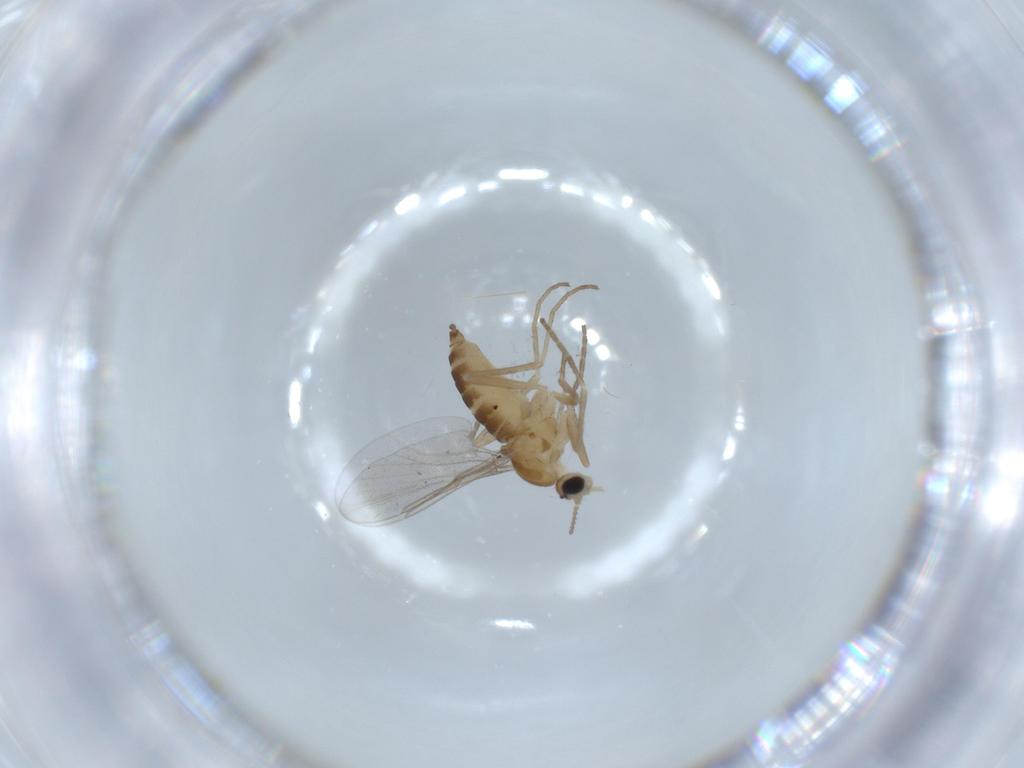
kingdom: Animalia
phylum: Arthropoda
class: Insecta
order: Diptera
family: Cecidomyiidae
